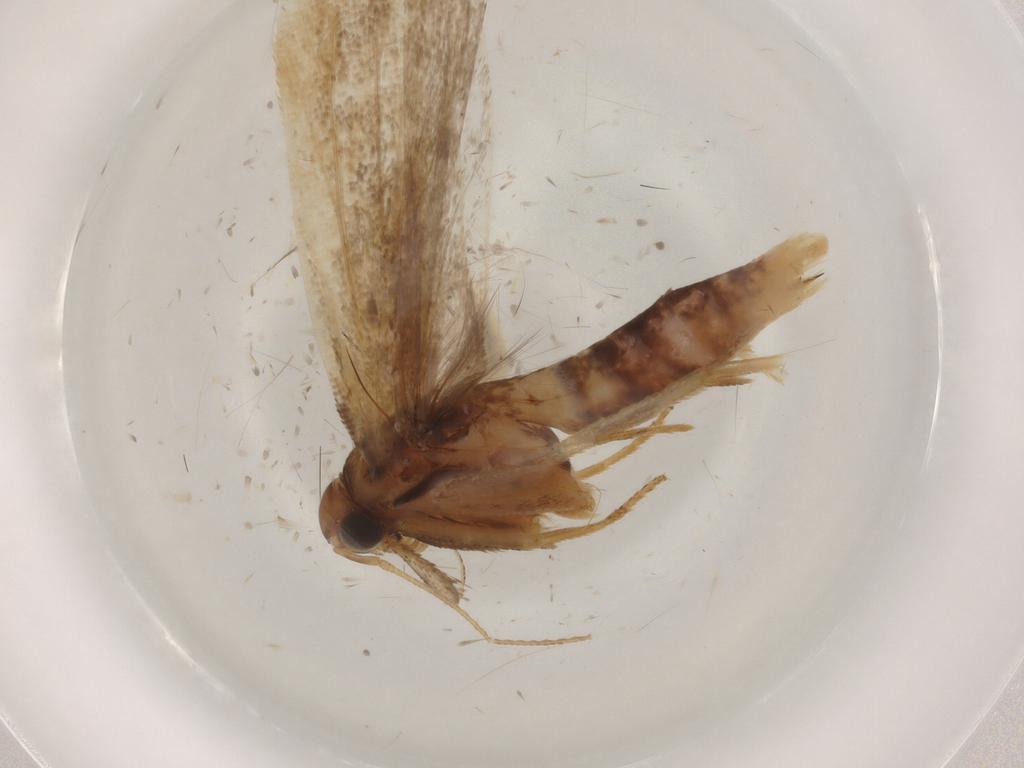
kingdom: Animalia
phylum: Arthropoda
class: Insecta
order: Lepidoptera
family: Gelechiidae
